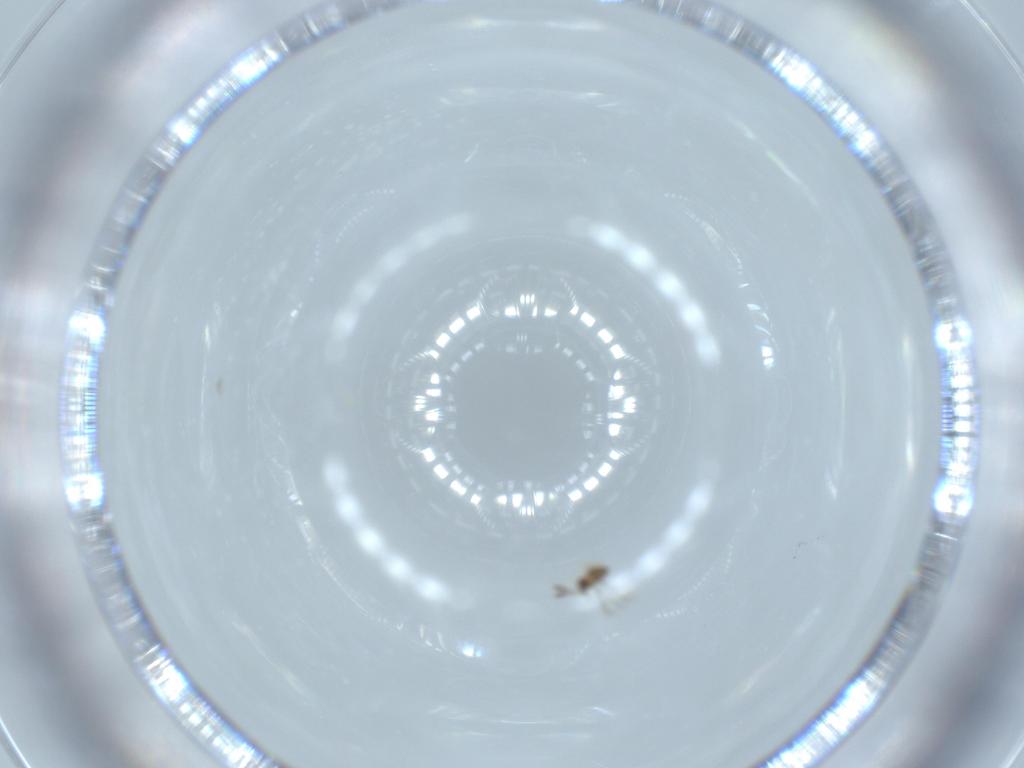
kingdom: Animalia
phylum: Arthropoda
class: Insecta
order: Hymenoptera
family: Mymaridae
